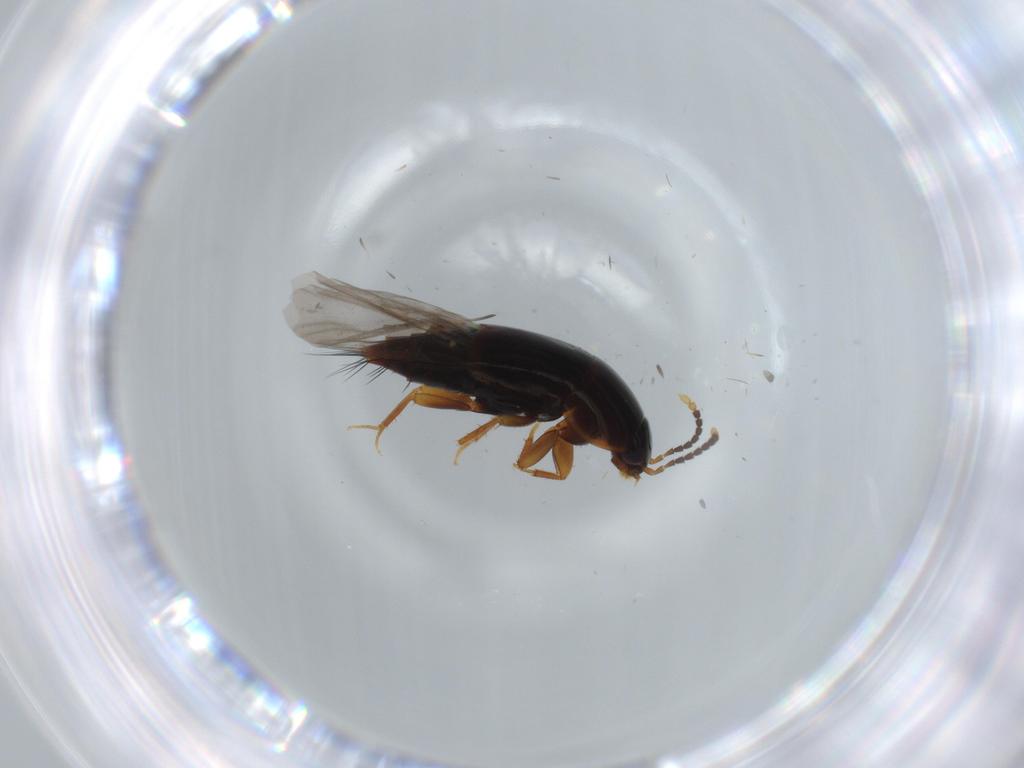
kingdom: Animalia
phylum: Arthropoda
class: Insecta
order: Coleoptera
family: Staphylinidae
